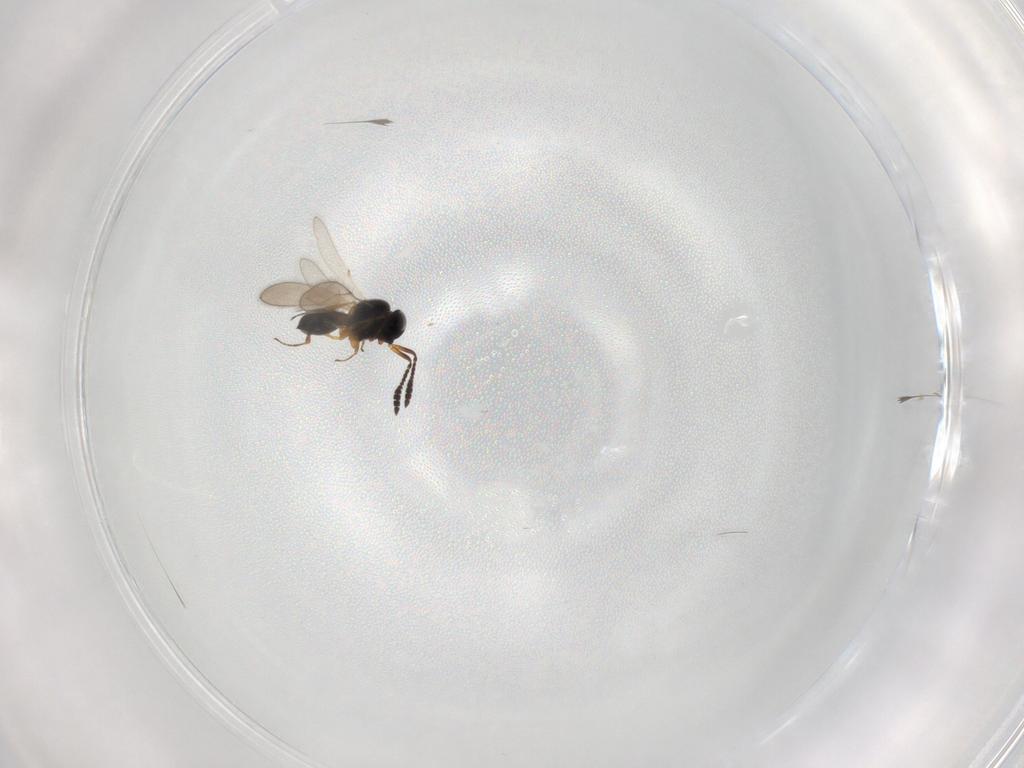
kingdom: Animalia
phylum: Arthropoda
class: Insecta
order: Hymenoptera
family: Scelionidae
